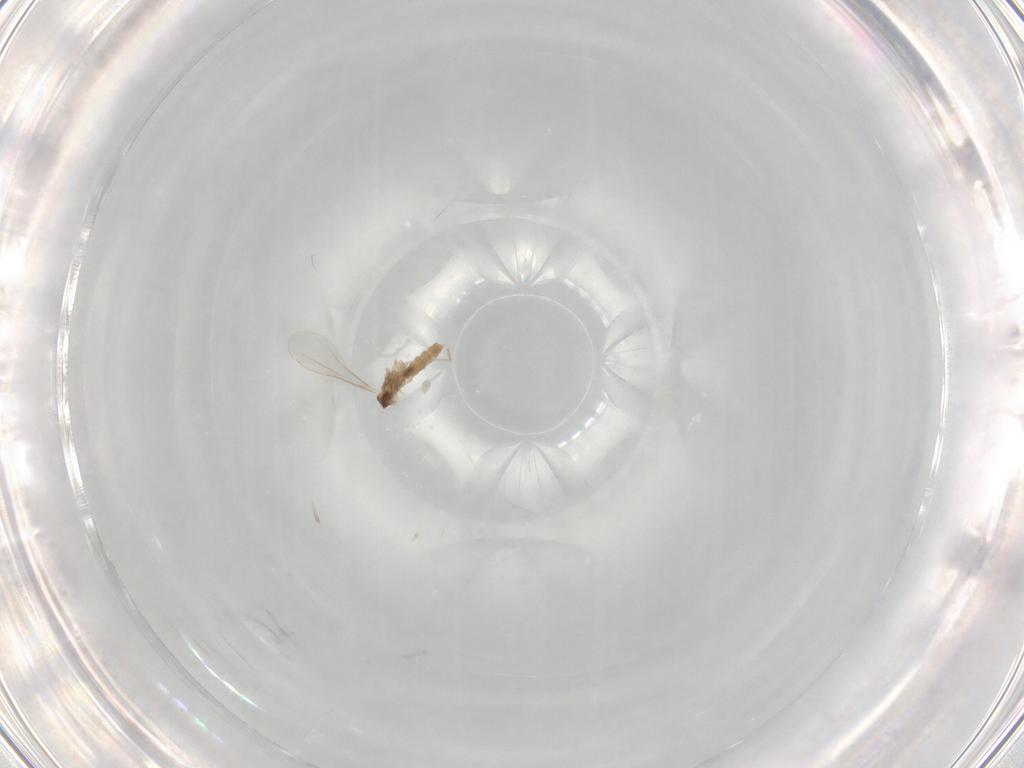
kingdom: Animalia
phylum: Arthropoda
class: Insecta
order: Diptera
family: Cecidomyiidae
